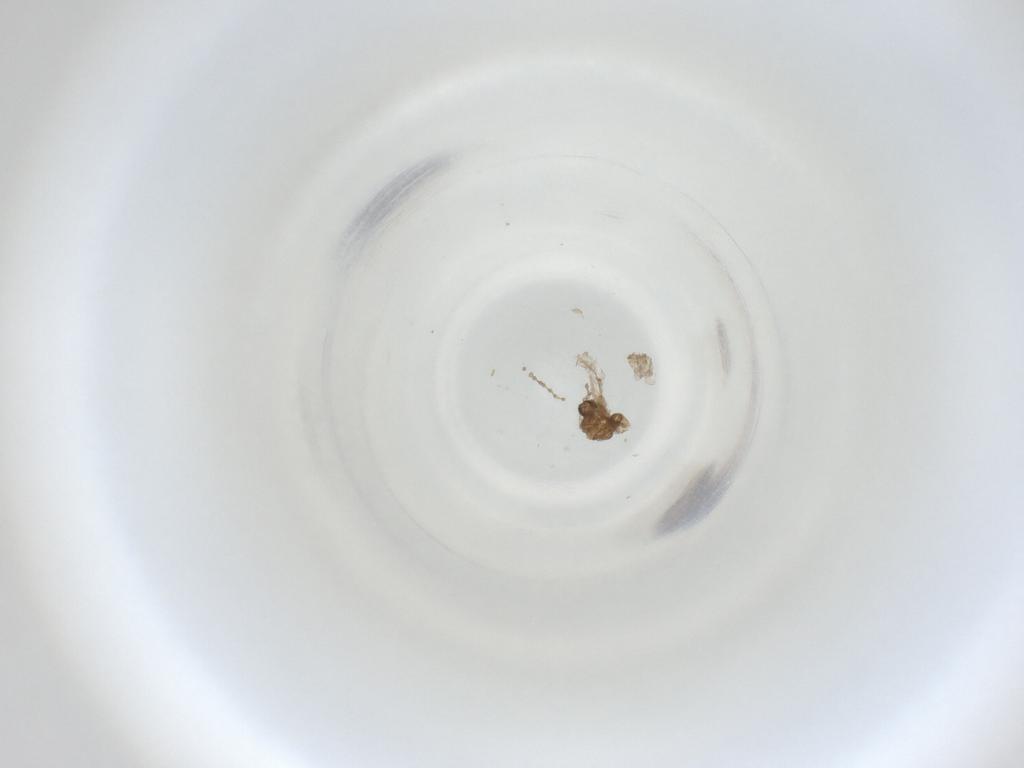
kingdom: Animalia
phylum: Arthropoda
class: Insecta
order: Diptera
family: Cecidomyiidae
